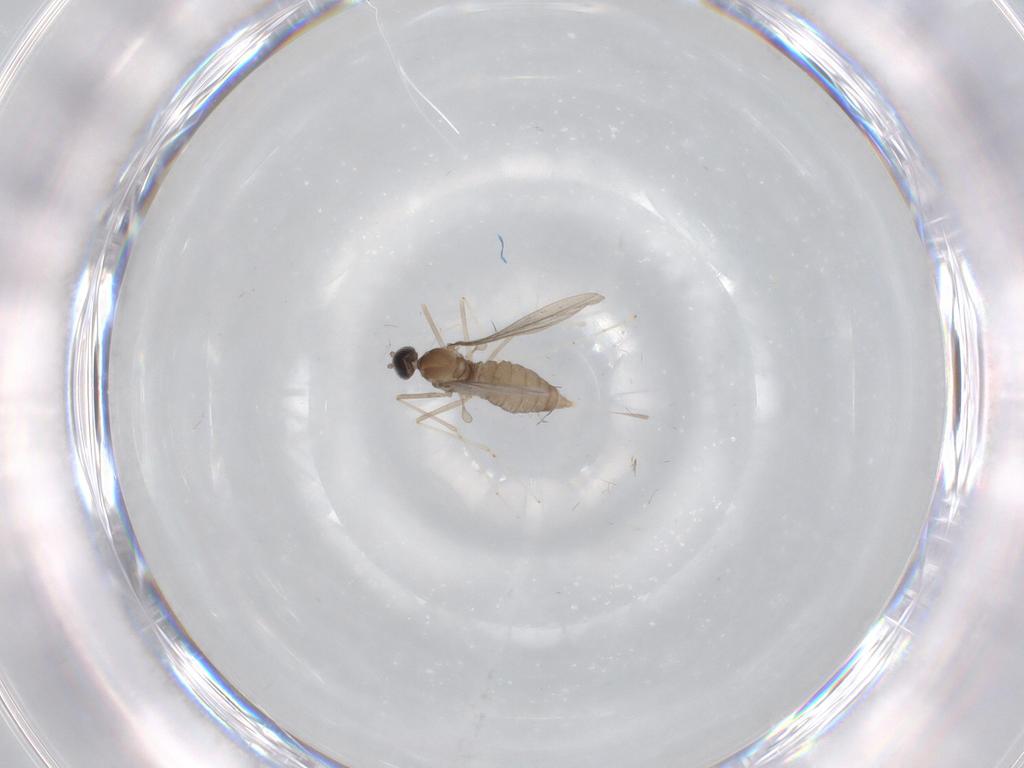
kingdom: Animalia
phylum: Arthropoda
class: Insecta
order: Diptera
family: Cecidomyiidae
